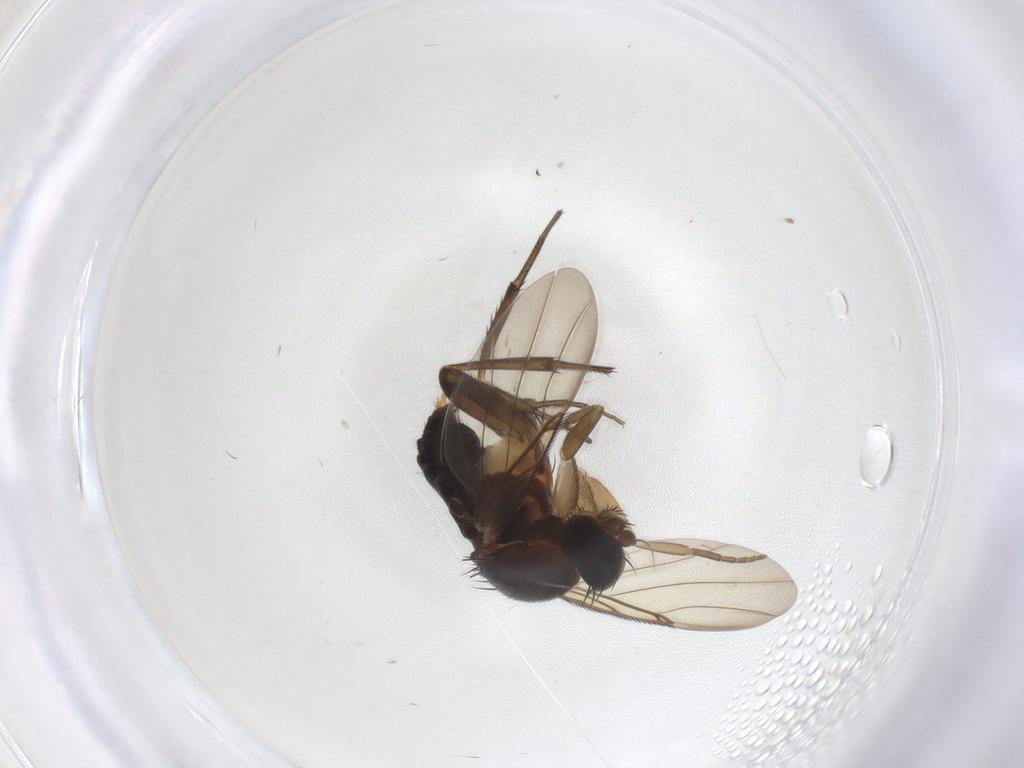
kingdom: Animalia
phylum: Arthropoda
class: Insecta
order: Diptera
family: Phoridae
